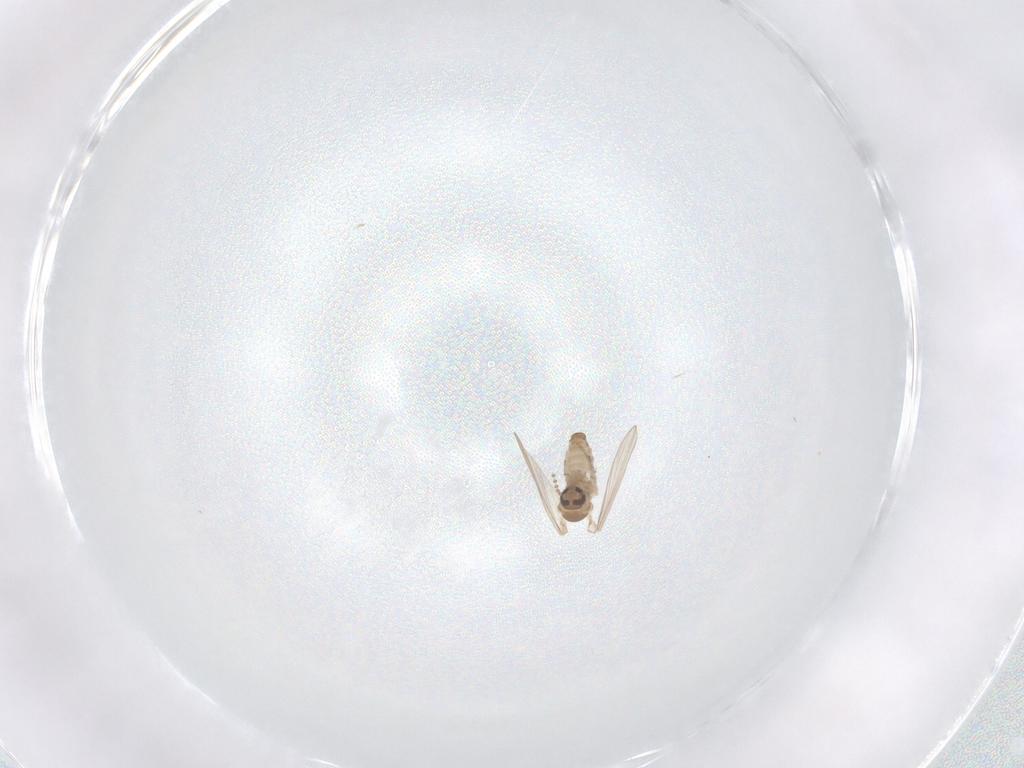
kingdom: Animalia
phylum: Arthropoda
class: Insecta
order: Diptera
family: Psychodidae
